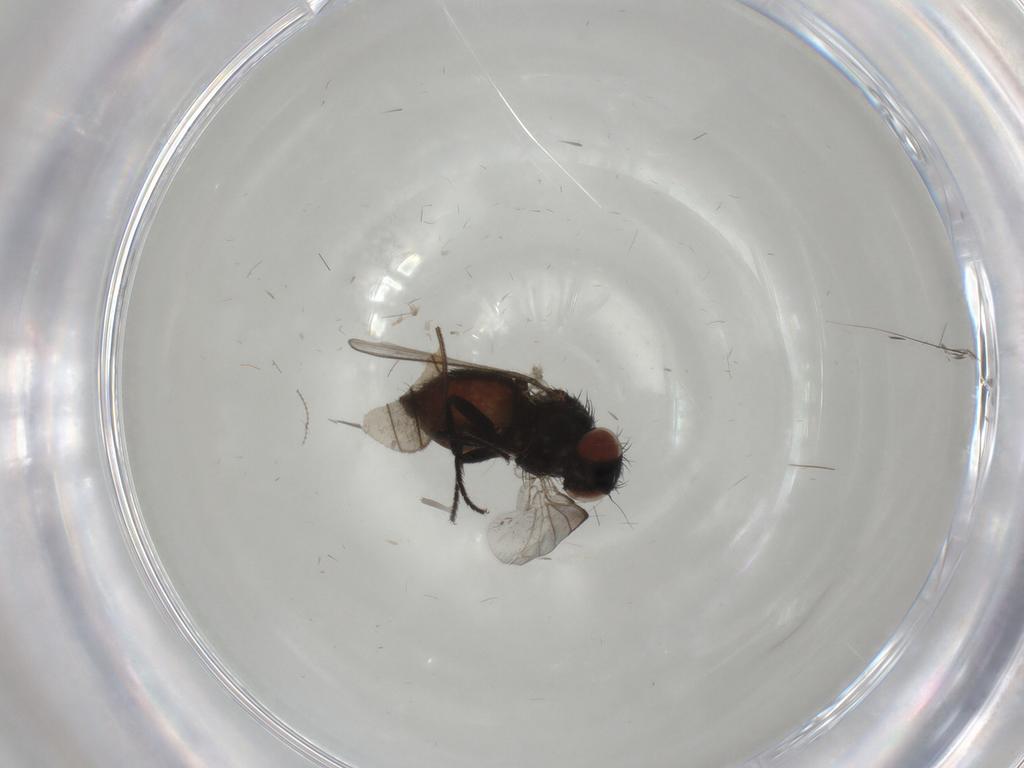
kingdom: Animalia
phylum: Arthropoda
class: Insecta
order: Diptera
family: Milichiidae
